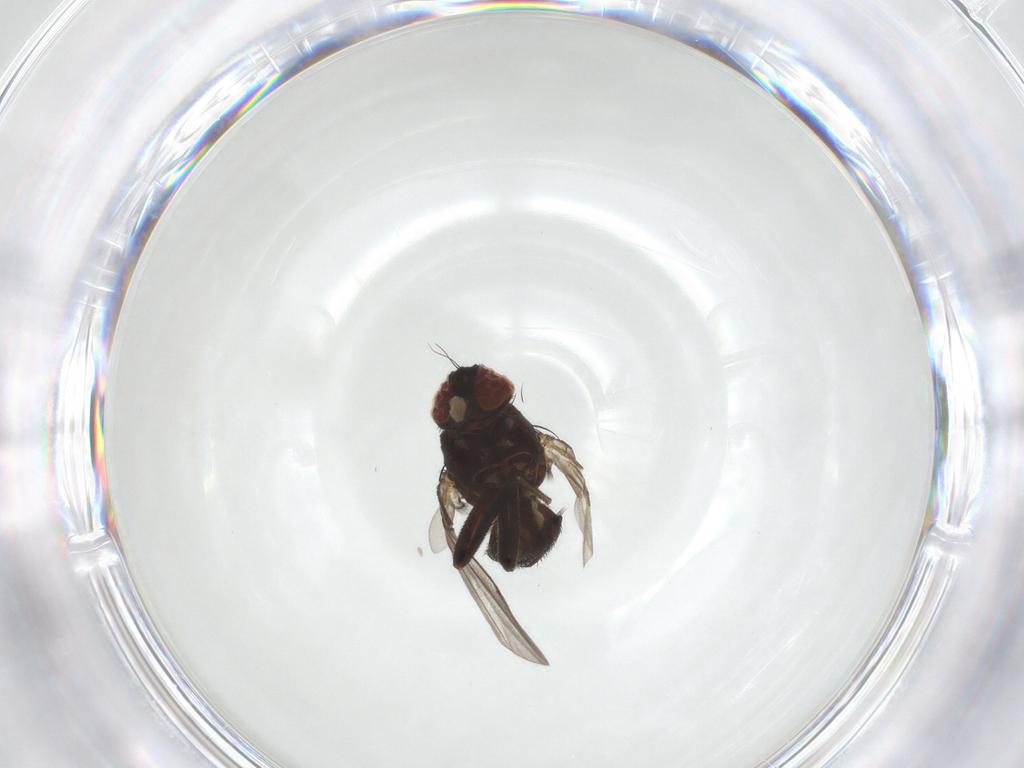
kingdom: Animalia
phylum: Arthropoda
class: Insecta
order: Diptera
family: Agromyzidae
